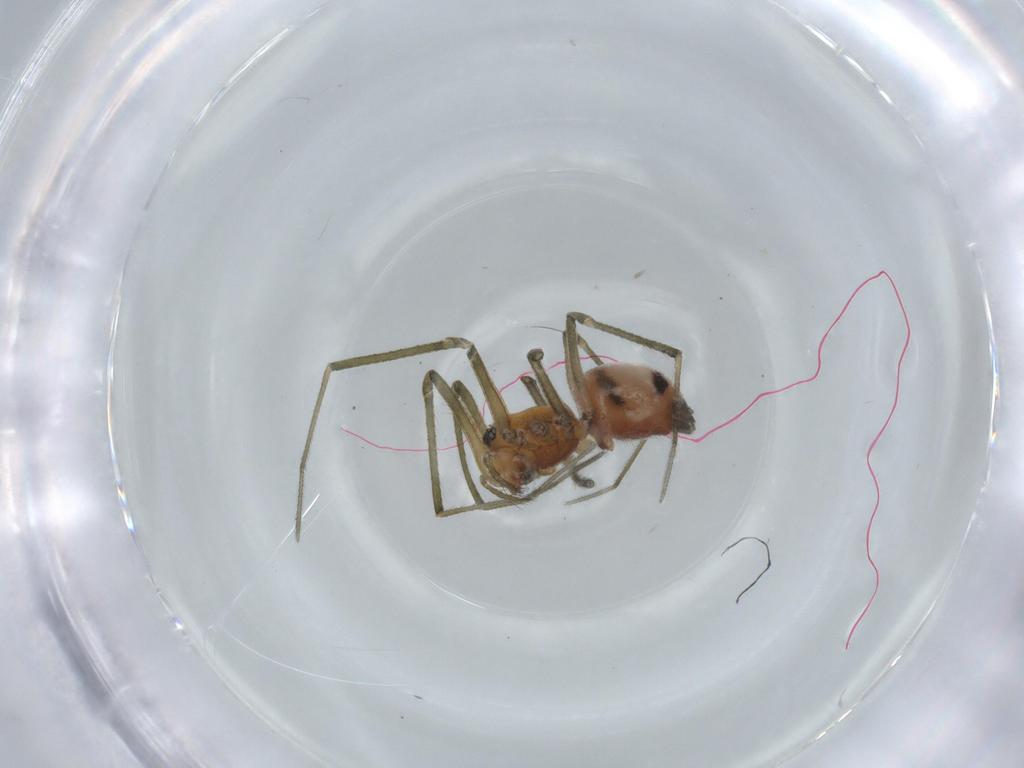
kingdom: Animalia
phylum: Arthropoda
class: Arachnida
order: Araneae
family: Linyphiidae
